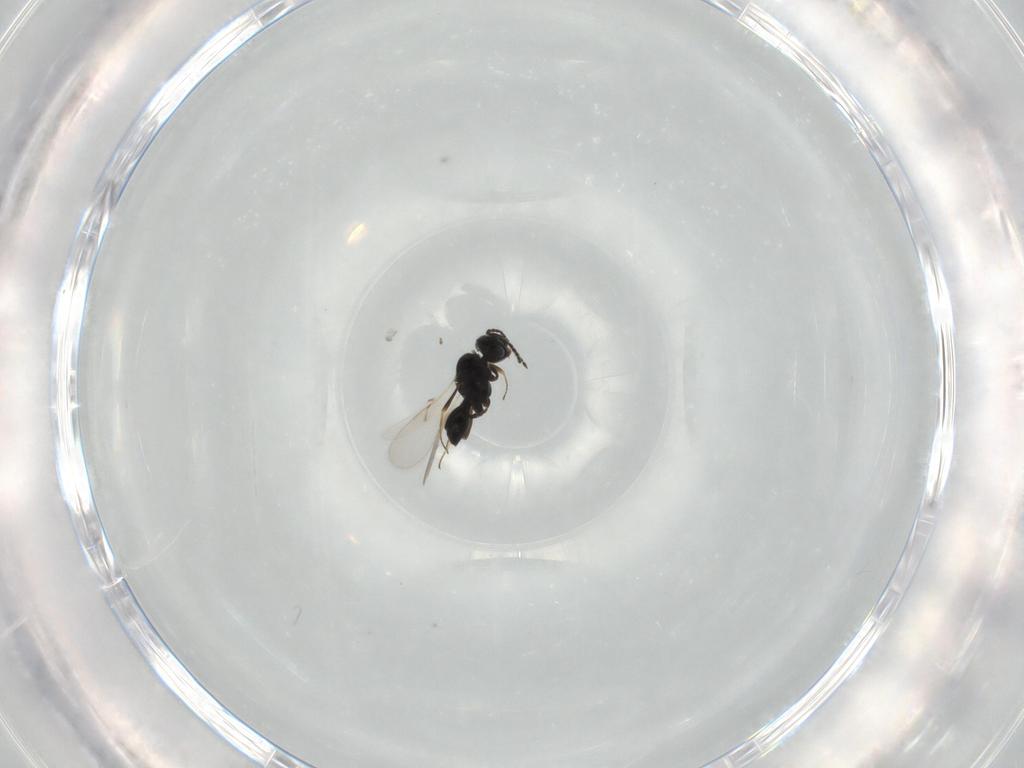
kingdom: Animalia
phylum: Arthropoda
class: Insecta
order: Hymenoptera
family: Scelionidae
